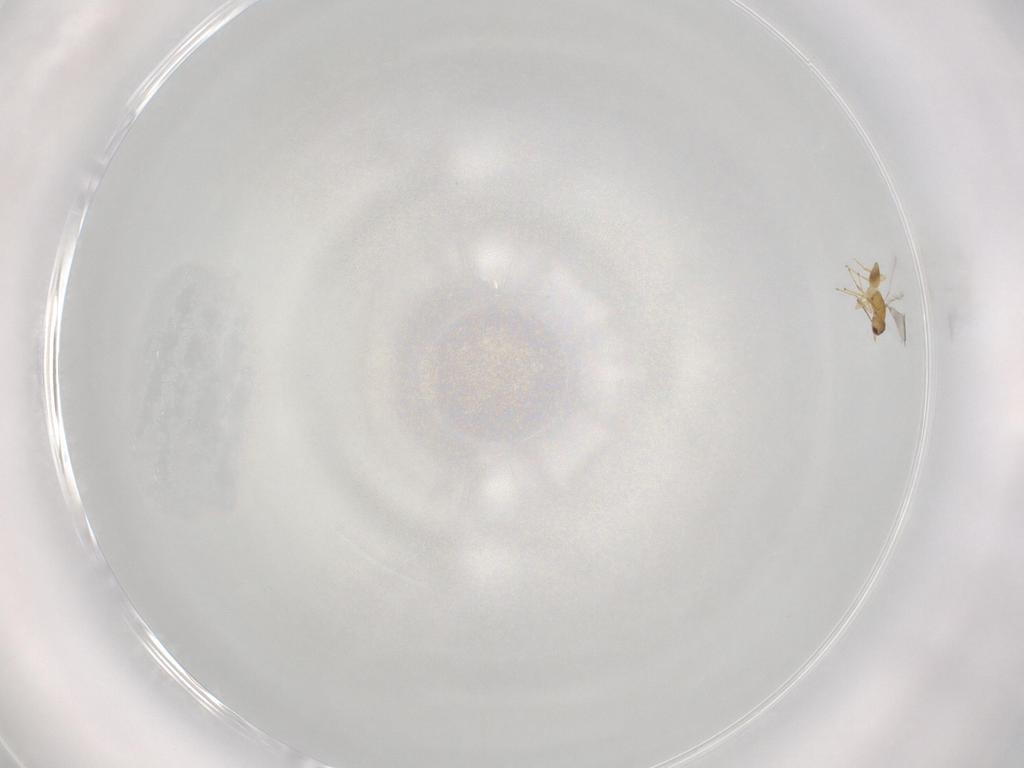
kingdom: Animalia
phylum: Arthropoda
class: Insecta
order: Hymenoptera
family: Mymaridae
